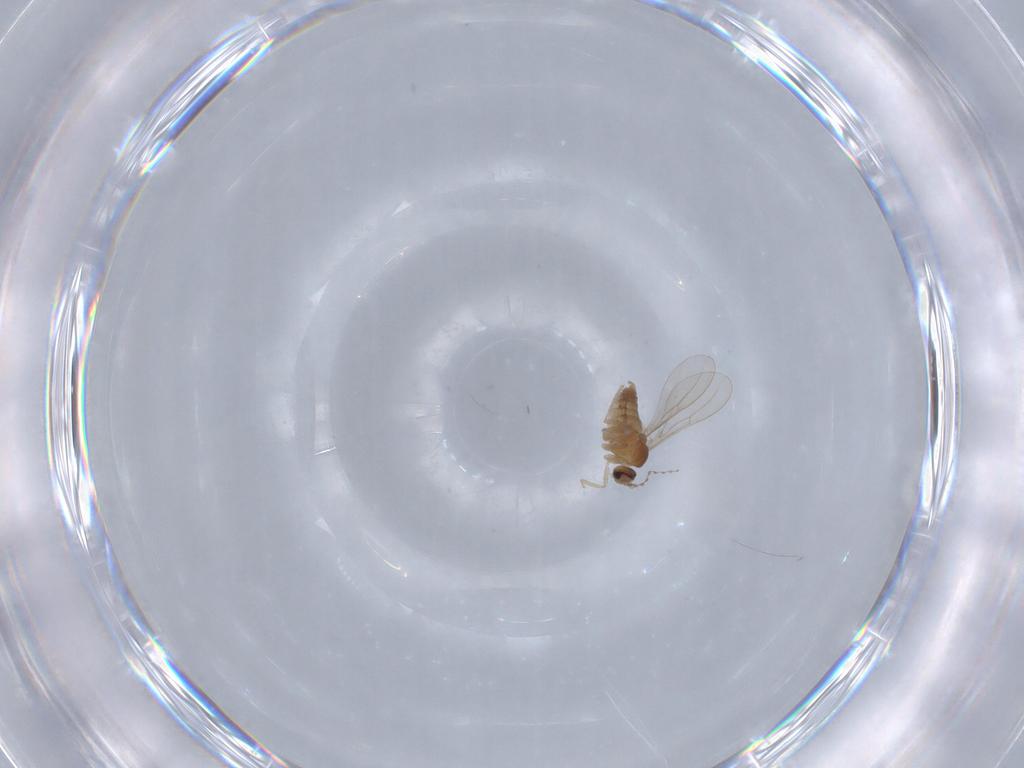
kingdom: Animalia
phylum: Arthropoda
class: Insecta
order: Diptera
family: Cecidomyiidae
